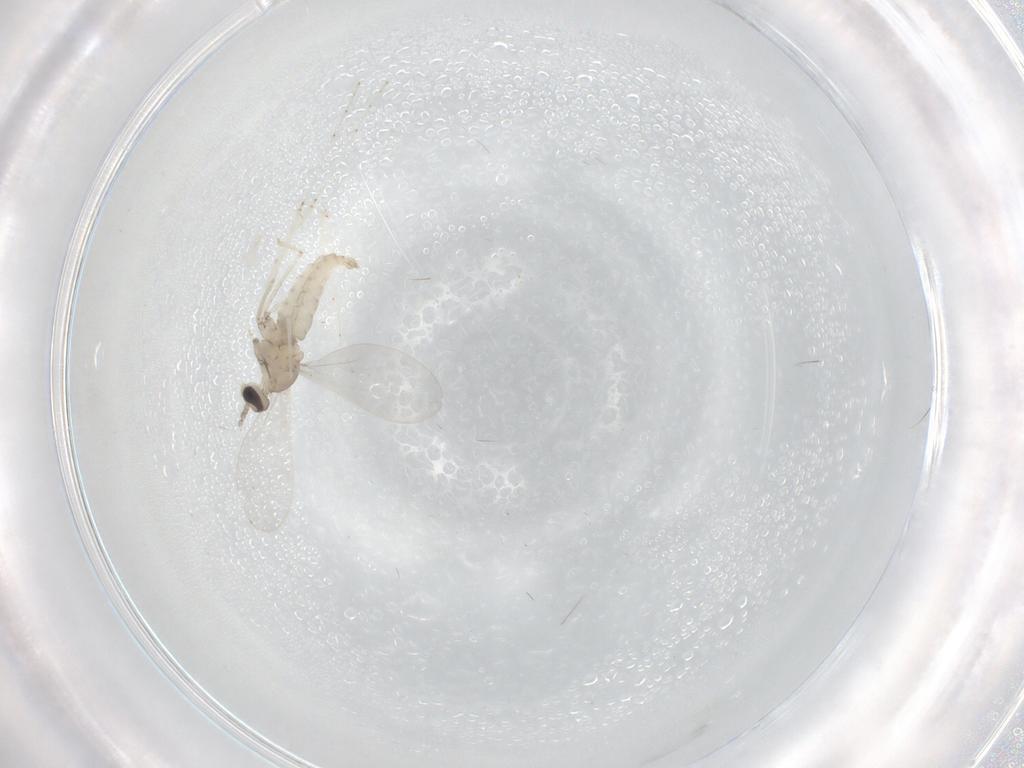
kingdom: Animalia
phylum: Arthropoda
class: Insecta
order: Diptera
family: Cecidomyiidae
